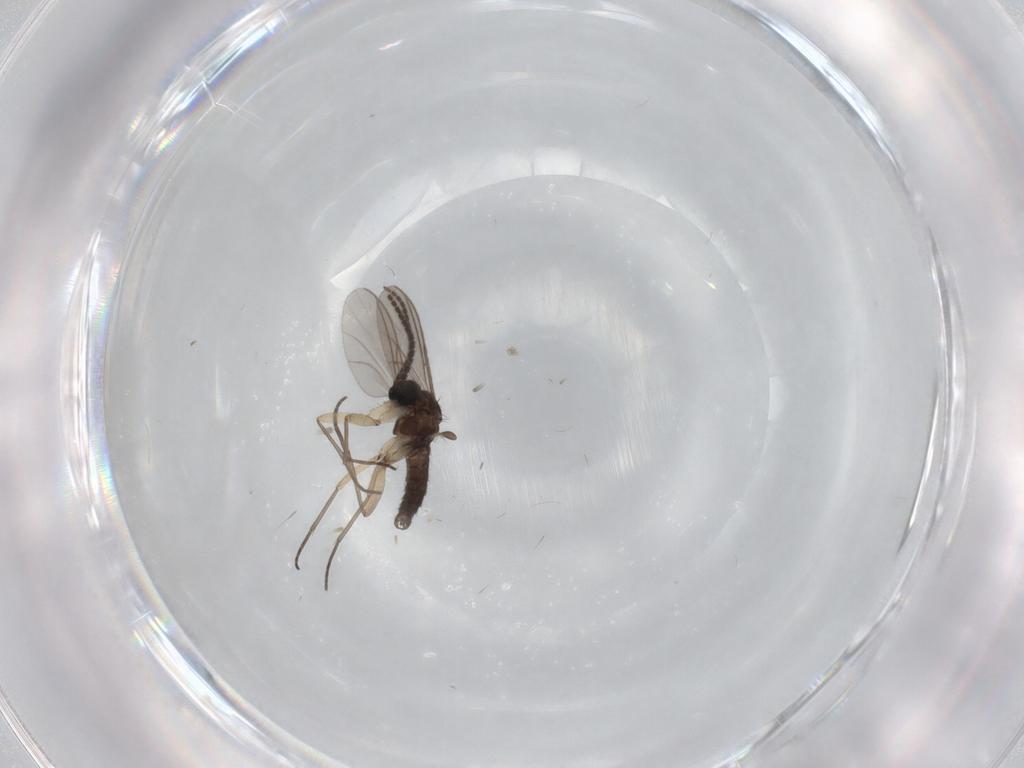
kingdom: Animalia
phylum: Arthropoda
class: Insecta
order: Diptera
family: Sciaridae
